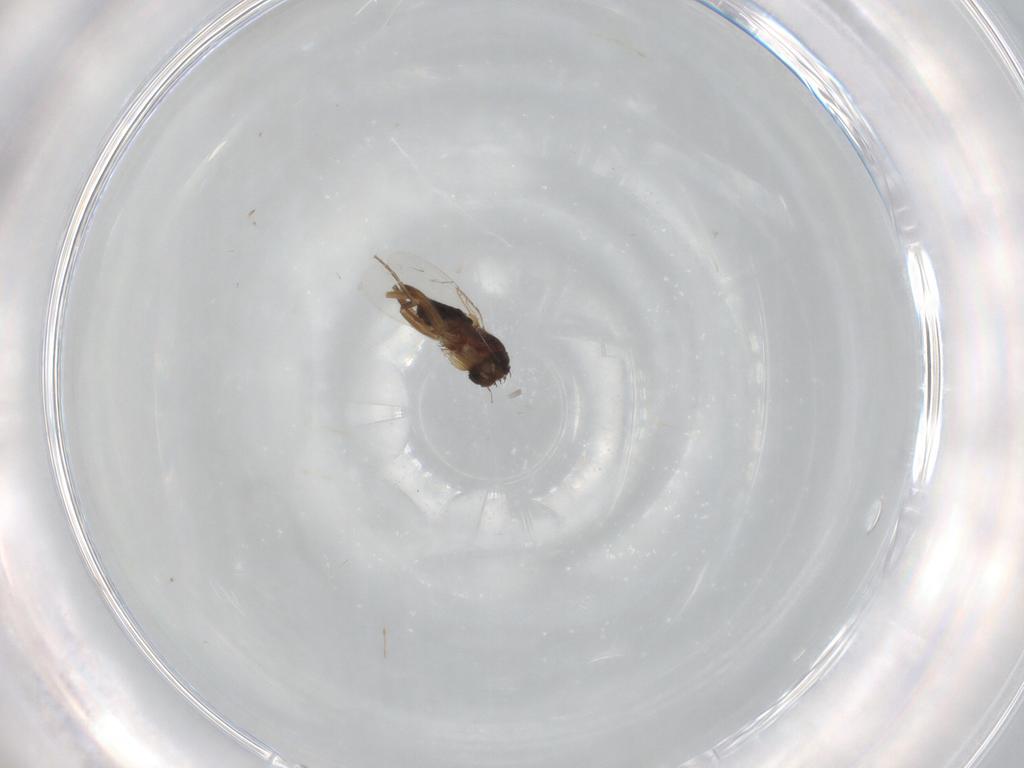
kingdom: Animalia
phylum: Arthropoda
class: Insecta
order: Diptera
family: Phoridae
